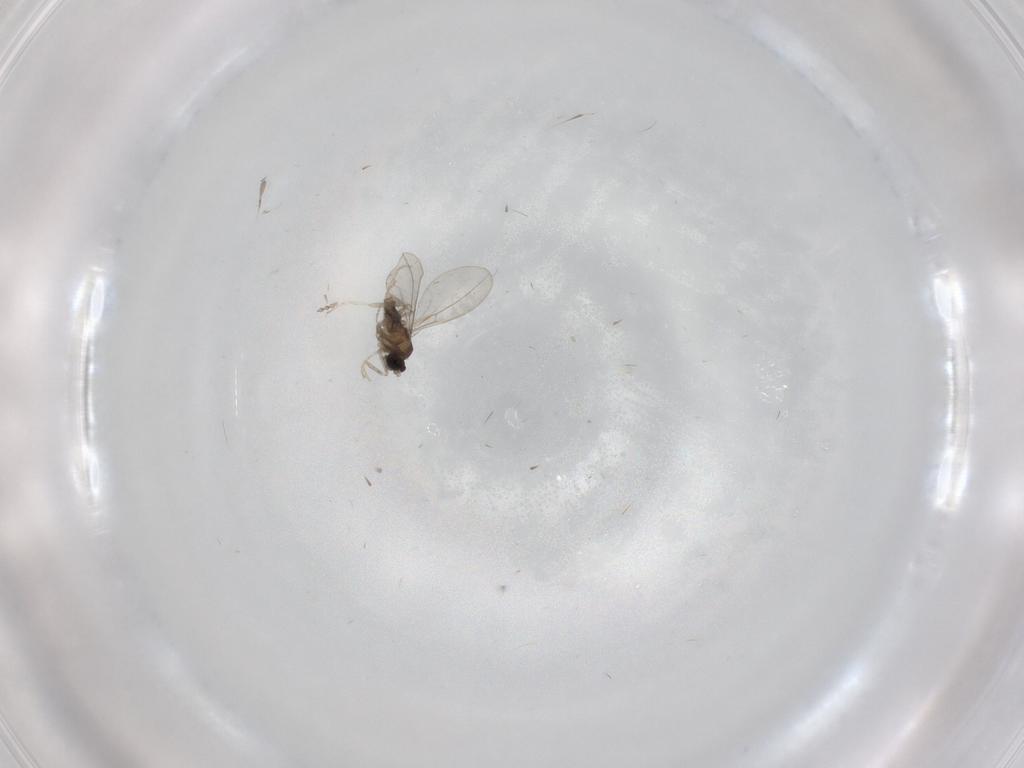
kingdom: Animalia
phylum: Arthropoda
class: Insecta
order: Diptera
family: Cecidomyiidae
